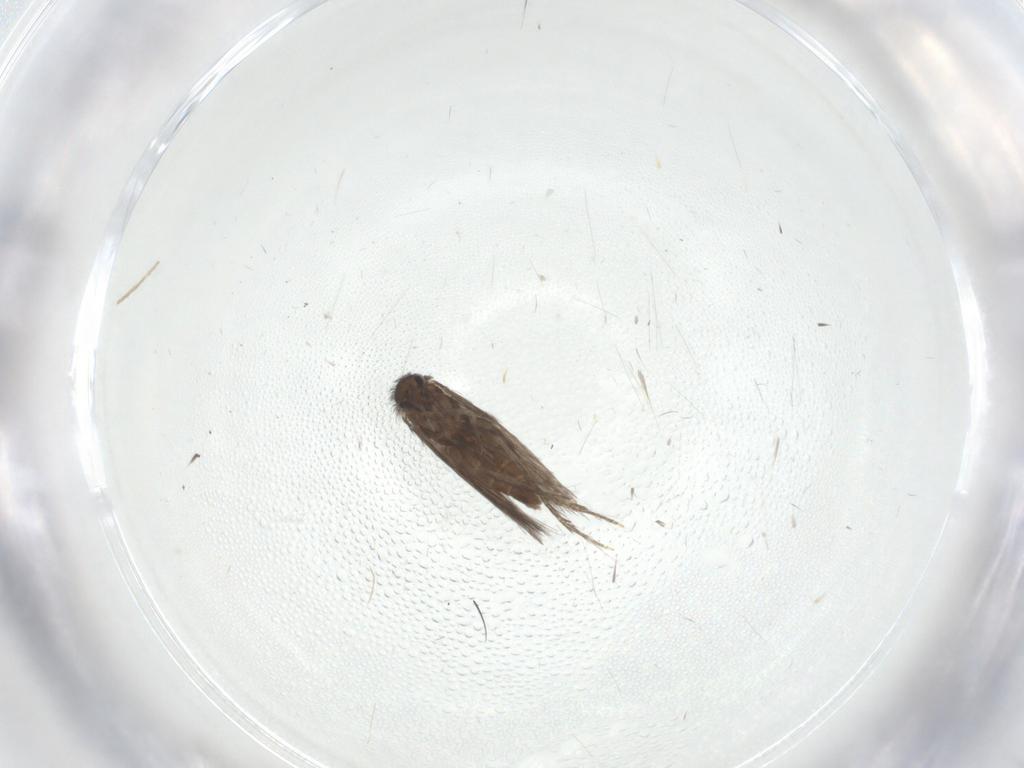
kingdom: Animalia
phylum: Arthropoda
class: Insecta
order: Trichoptera
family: Hydroptilidae
